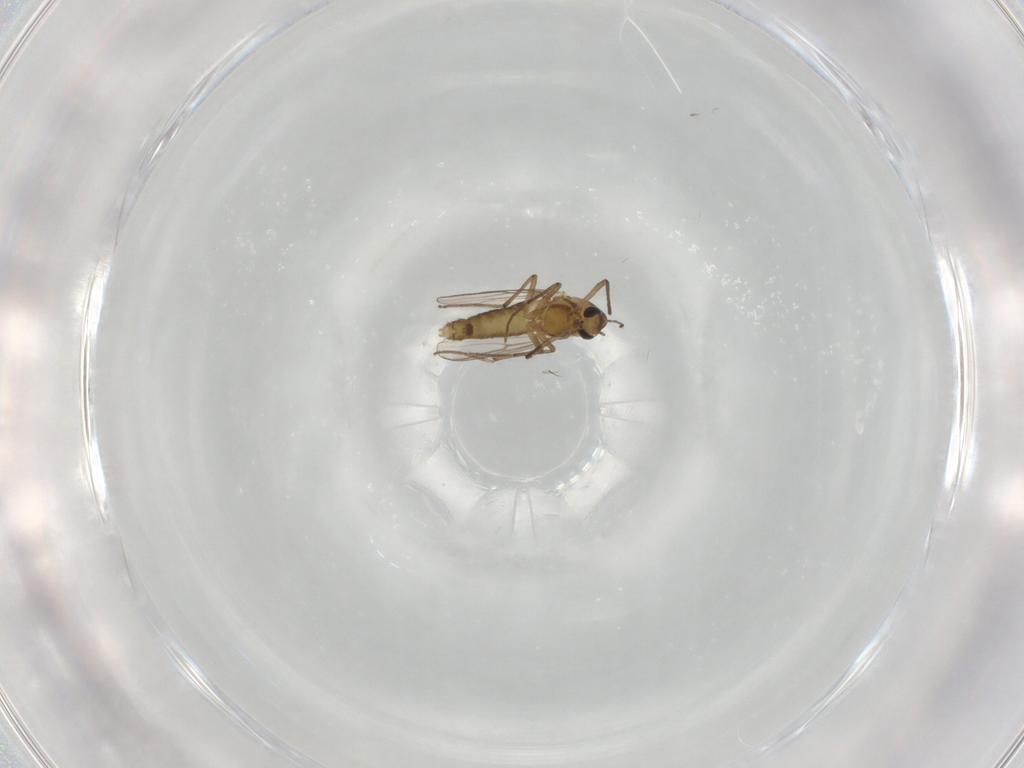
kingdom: Animalia
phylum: Arthropoda
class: Insecta
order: Diptera
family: Chironomidae
